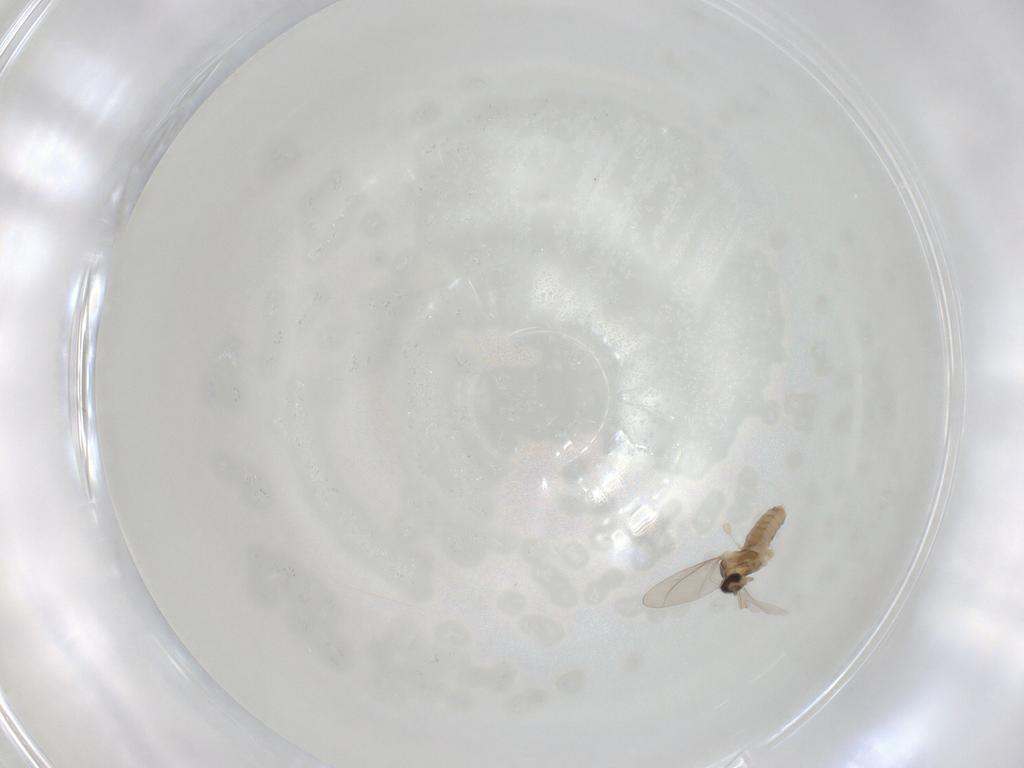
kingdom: Animalia
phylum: Arthropoda
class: Insecta
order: Diptera
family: Cecidomyiidae
